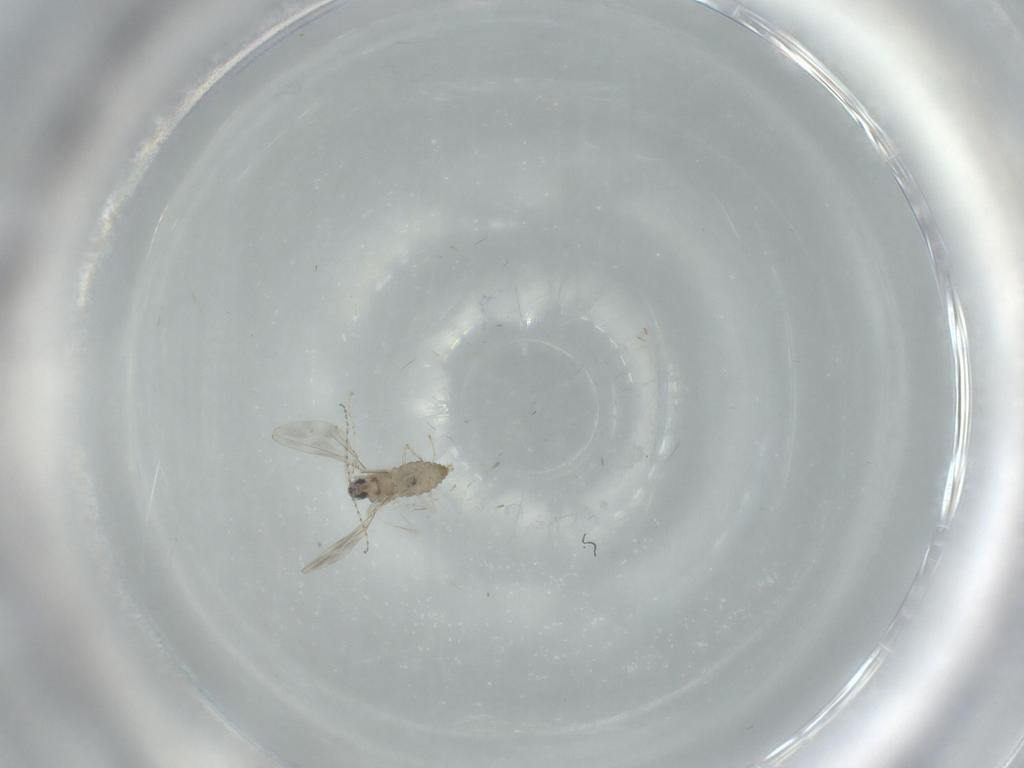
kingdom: Animalia
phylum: Arthropoda
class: Insecta
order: Diptera
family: Cecidomyiidae
